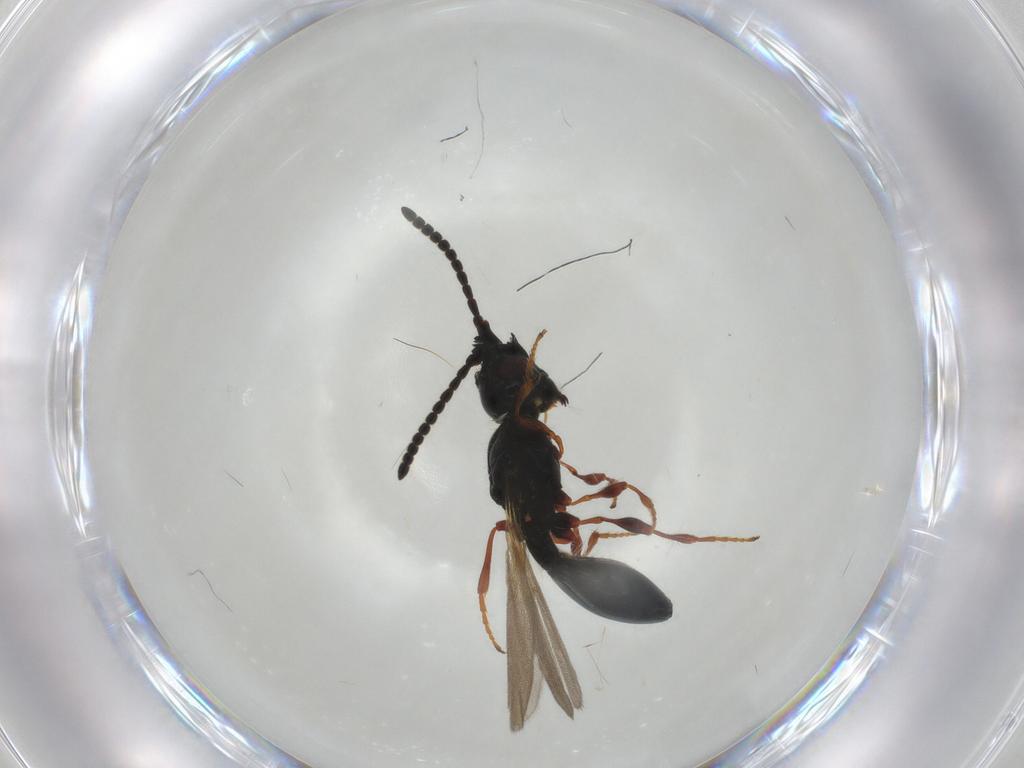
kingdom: Animalia
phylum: Arthropoda
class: Insecta
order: Hymenoptera
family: Diapriidae
